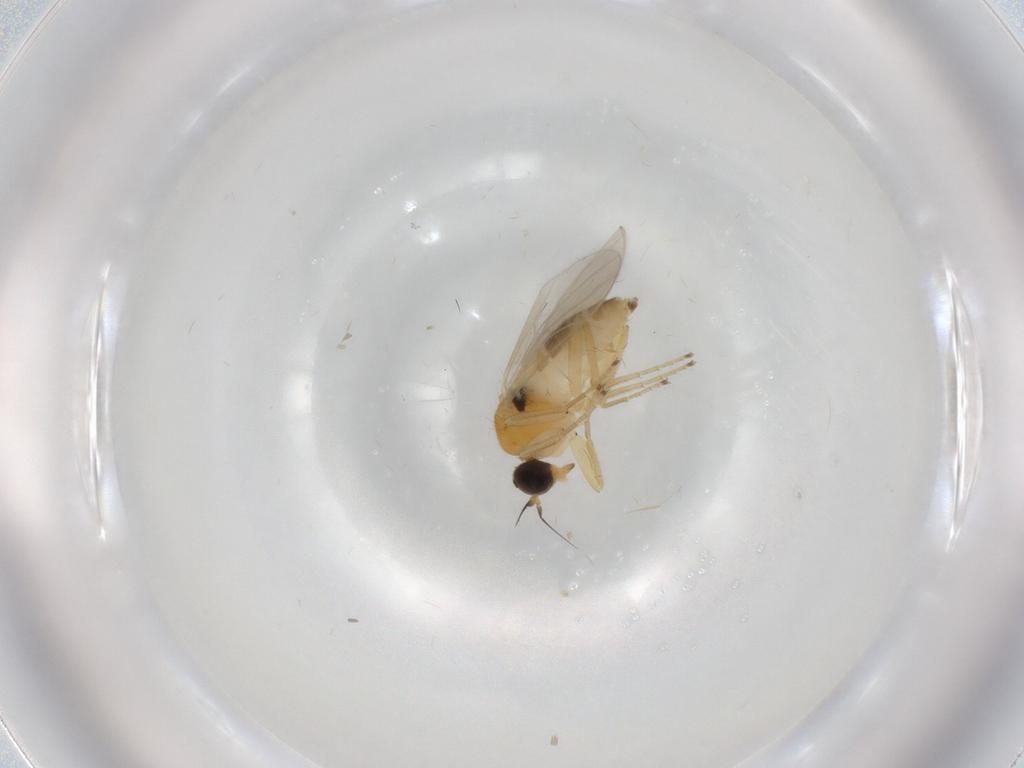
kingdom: Animalia
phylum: Arthropoda
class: Insecta
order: Diptera
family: Hybotidae
